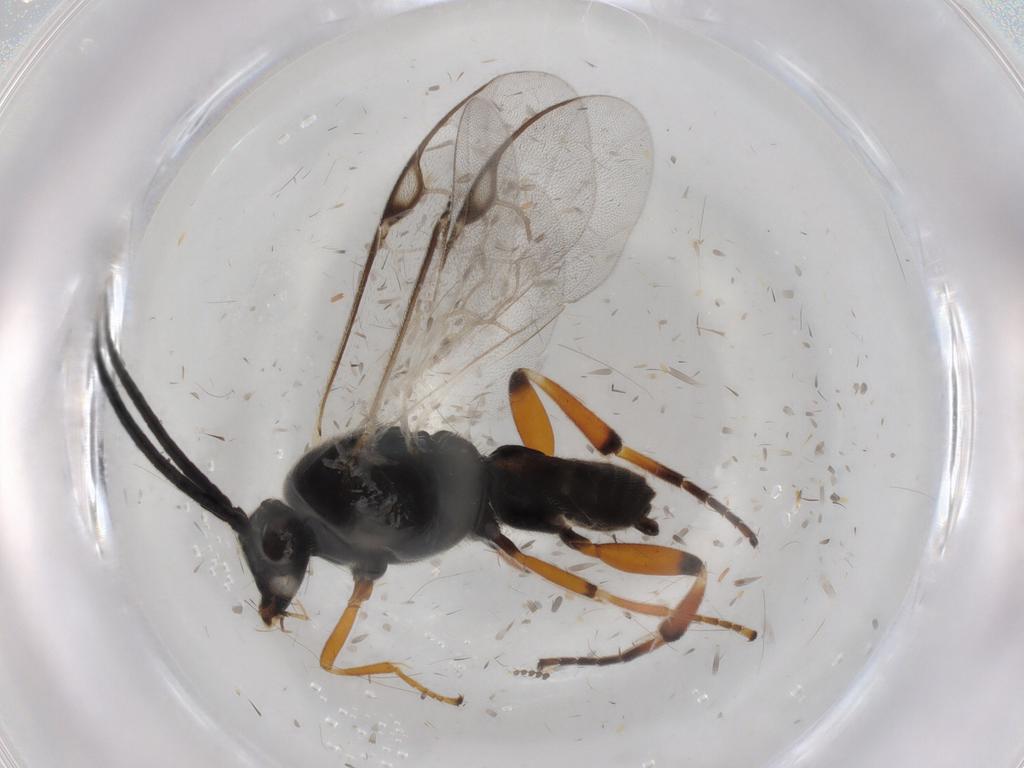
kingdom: Animalia
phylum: Arthropoda
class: Insecta
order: Hymenoptera
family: Braconidae
